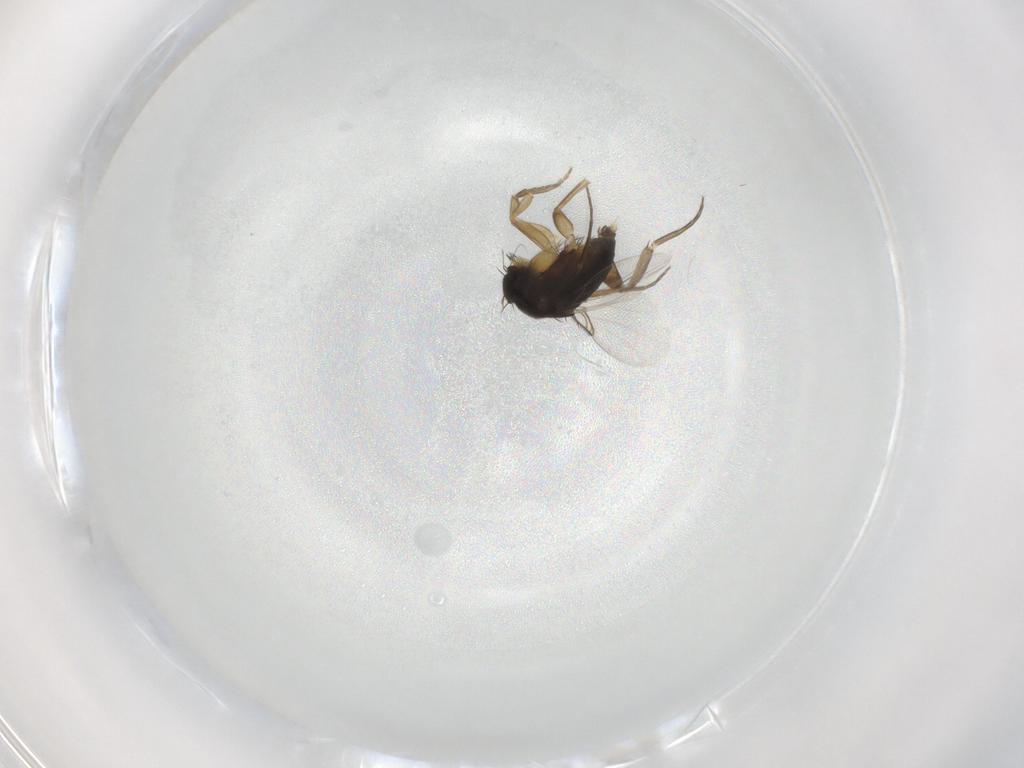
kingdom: Animalia
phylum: Arthropoda
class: Insecta
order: Diptera
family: Phoridae
